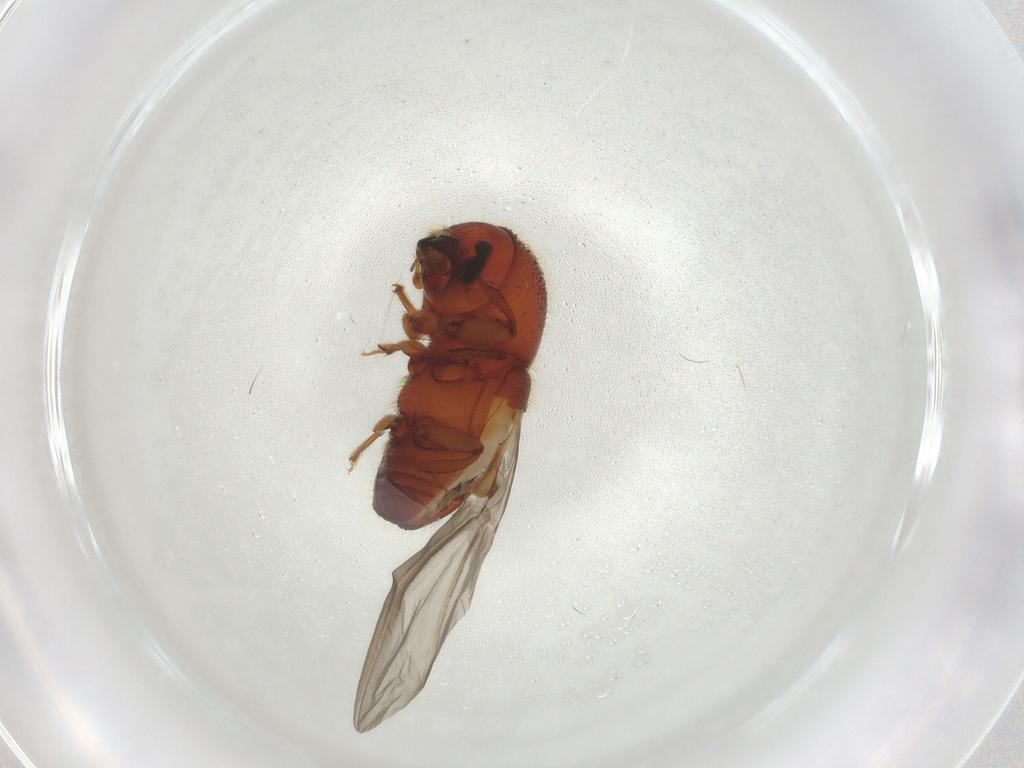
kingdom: Animalia
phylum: Arthropoda
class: Insecta
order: Coleoptera
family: Curculionidae
